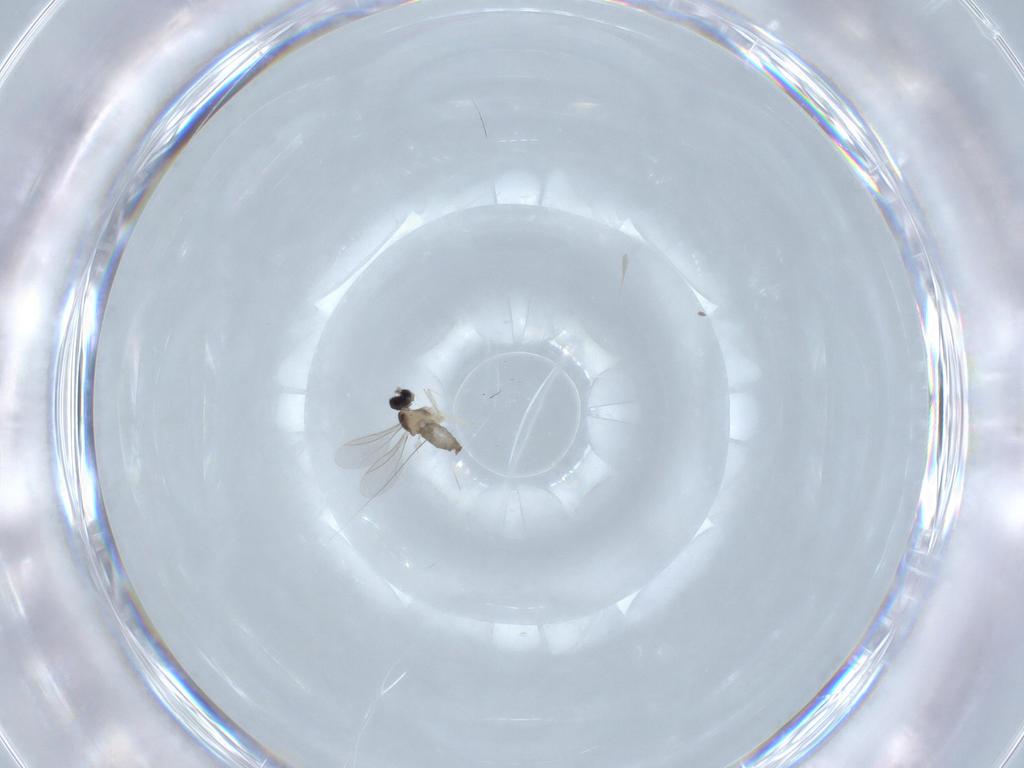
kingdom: Animalia
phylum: Arthropoda
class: Insecta
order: Diptera
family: Cecidomyiidae
